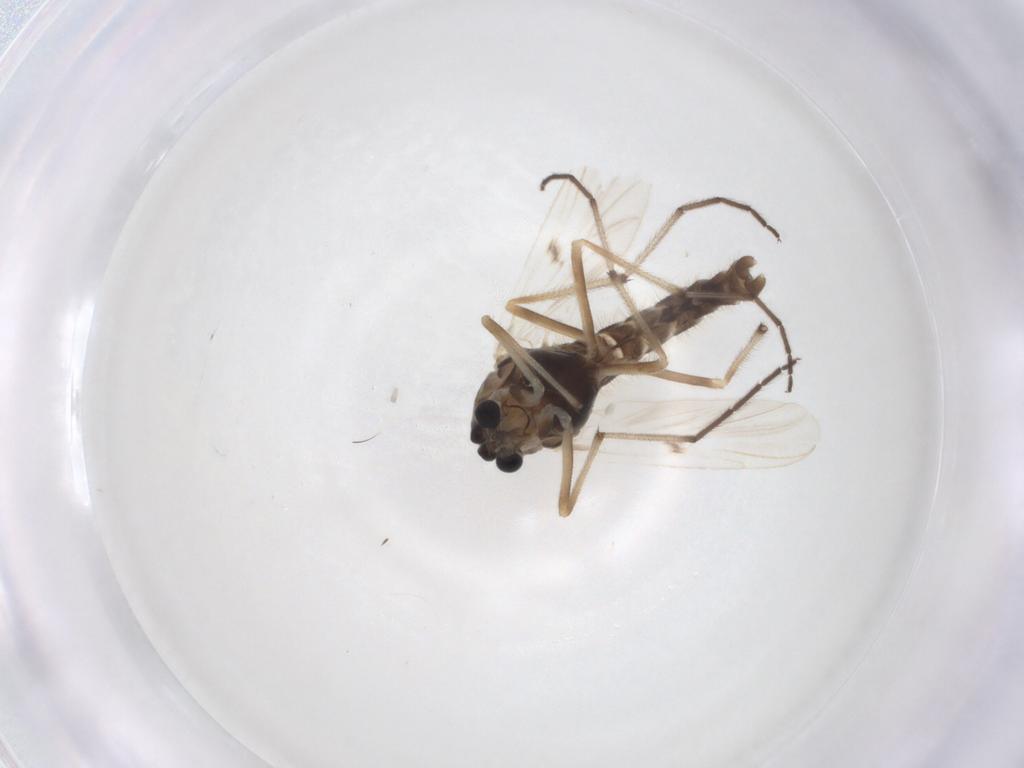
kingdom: Animalia
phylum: Arthropoda
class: Insecta
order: Diptera
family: Chironomidae
